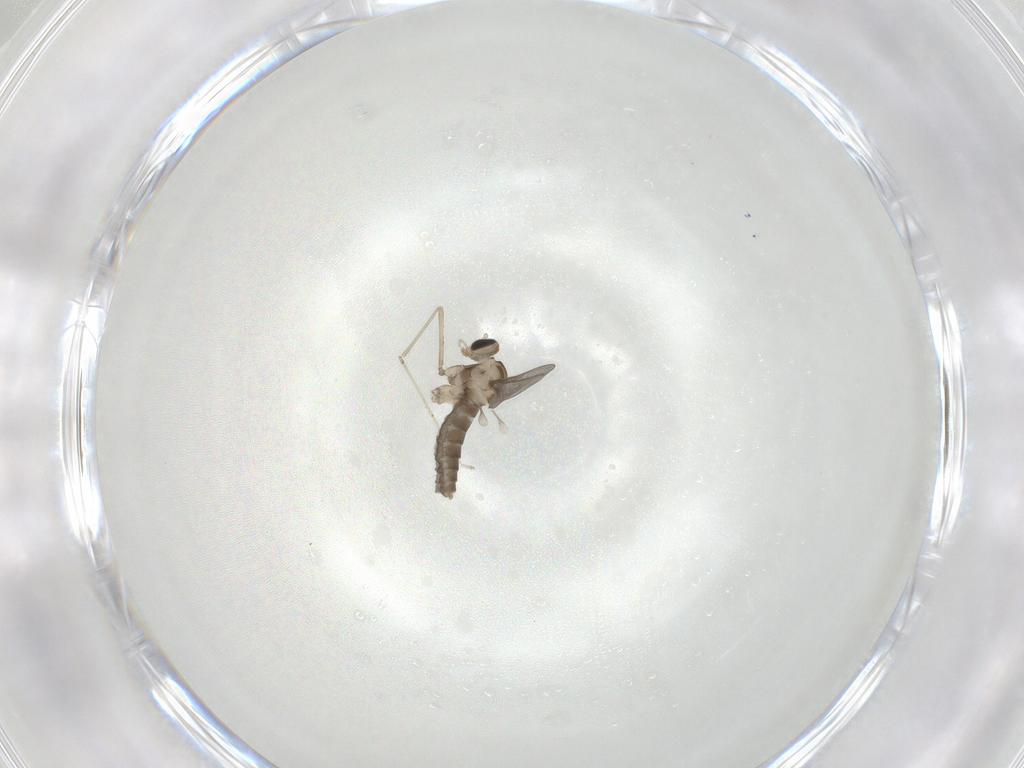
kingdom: Animalia
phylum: Arthropoda
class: Insecta
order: Diptera
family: Cecidomyiidae
